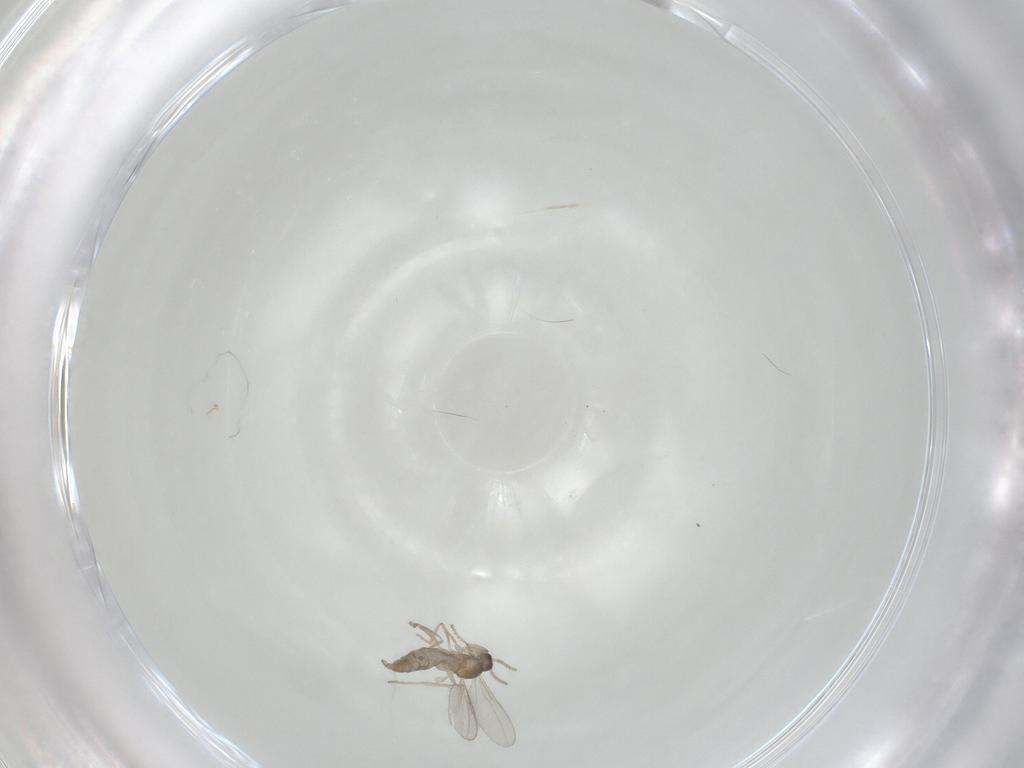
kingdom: Animalia
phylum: Arthropoda
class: Insecta
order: Diptera
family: Cecidomyiidae
